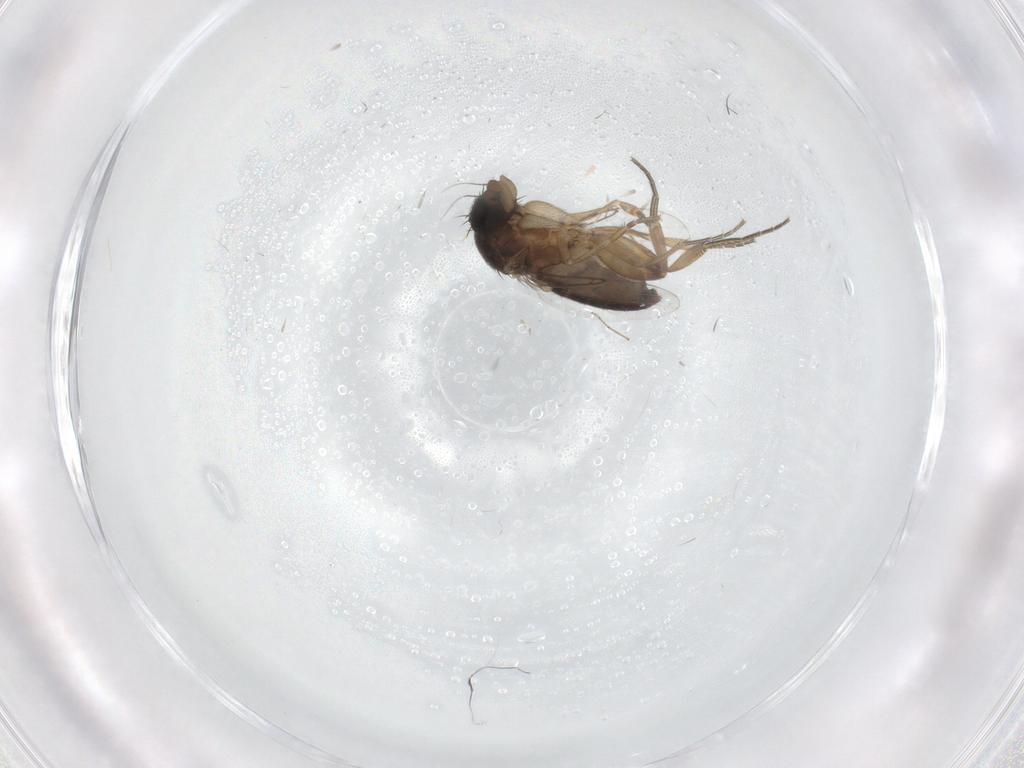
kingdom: Animalia
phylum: Arthropoda
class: Insecta
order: Diptera
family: Phoridae
